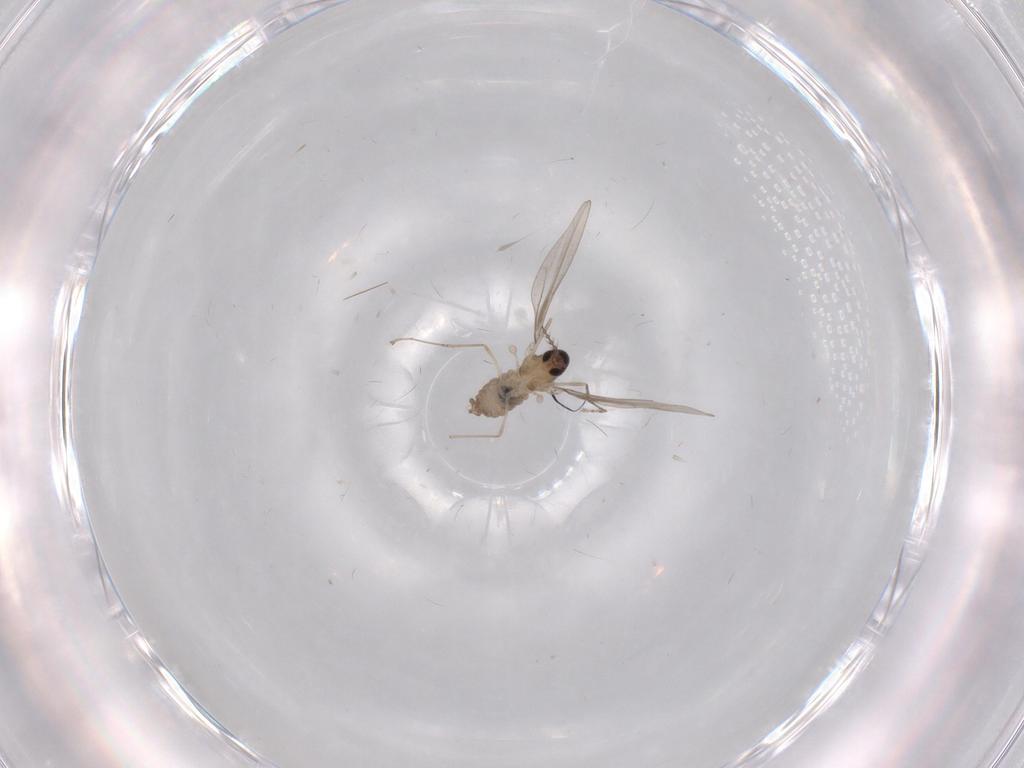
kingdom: Animalia
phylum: Arthropoda
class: Insecta
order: Diptera
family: Cecidomyiidae
